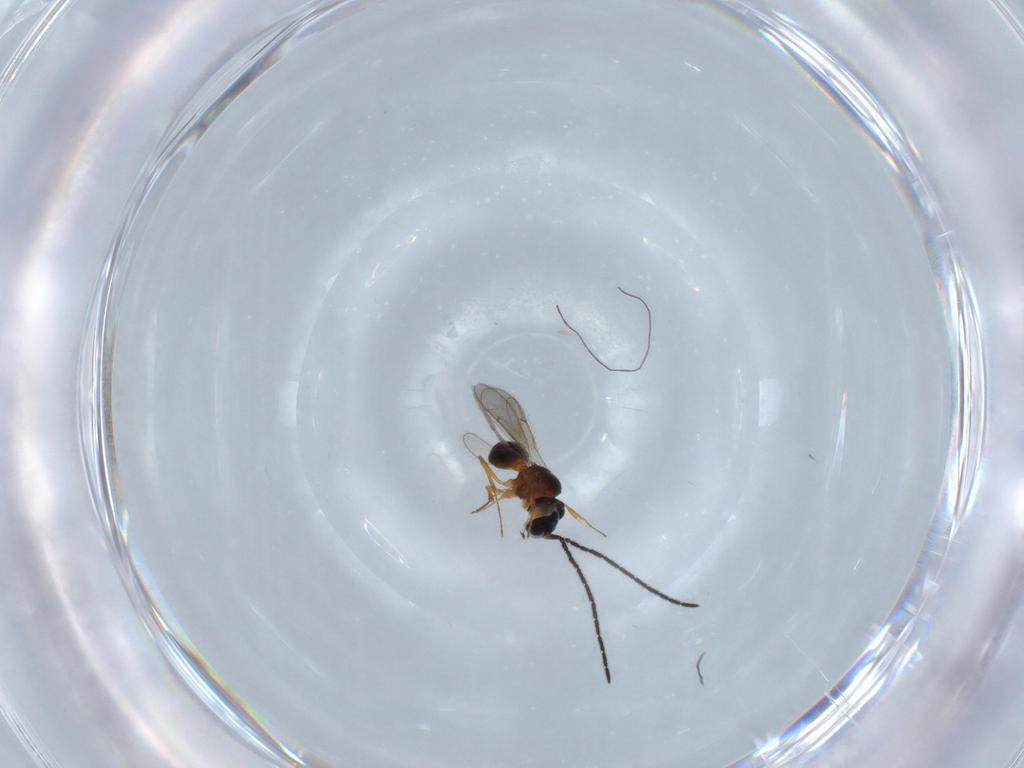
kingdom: Animalia
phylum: Arthropoda
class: Insecta
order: Hymenoptera
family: Scelionidae
